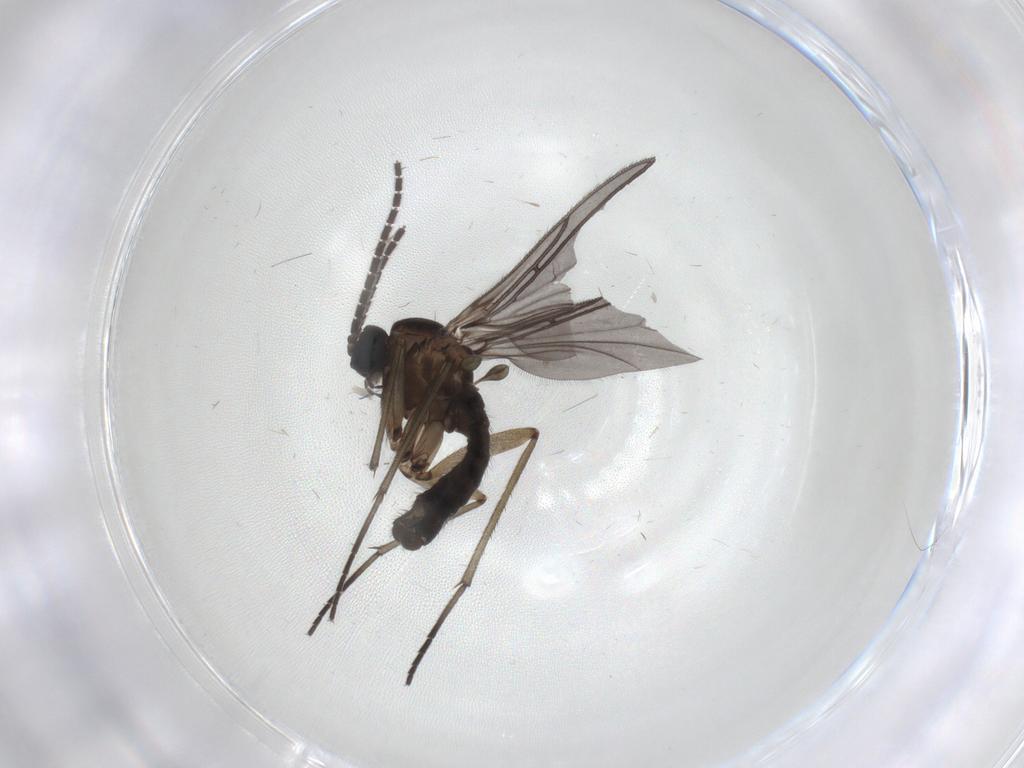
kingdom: Animalia
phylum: Arthropoda
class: Insecta
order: Diptera
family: Sciaridae
